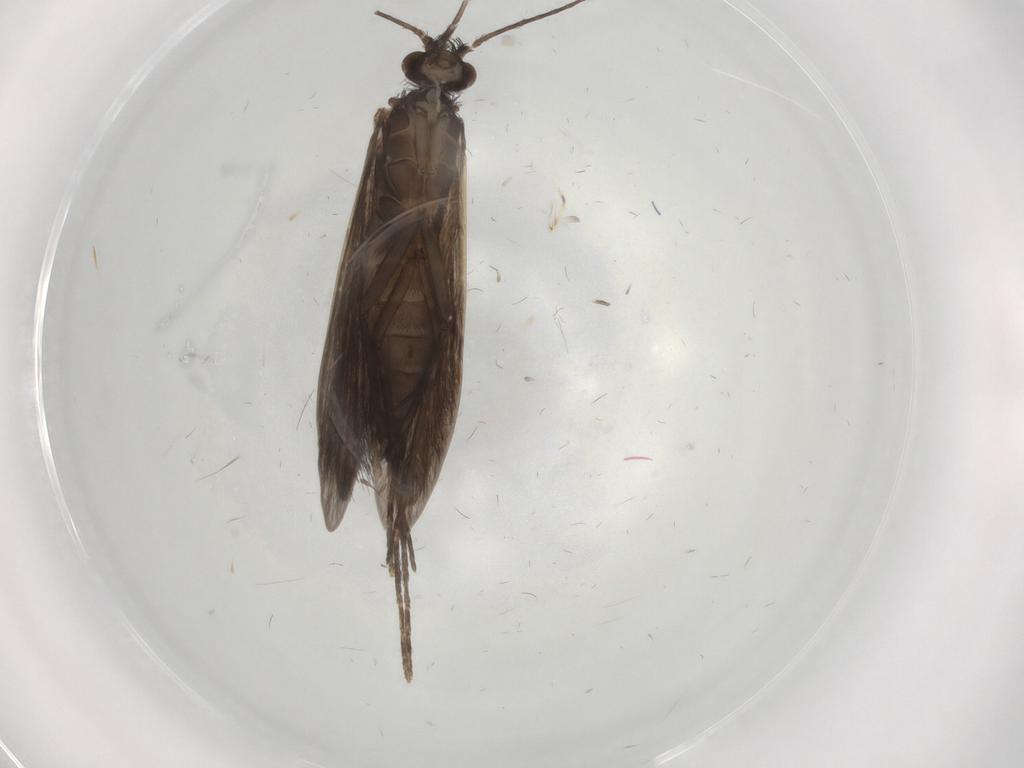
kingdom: Animalia
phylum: Arthropoda
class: Insecta
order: Trichoptera
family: Xiphocentronidae
